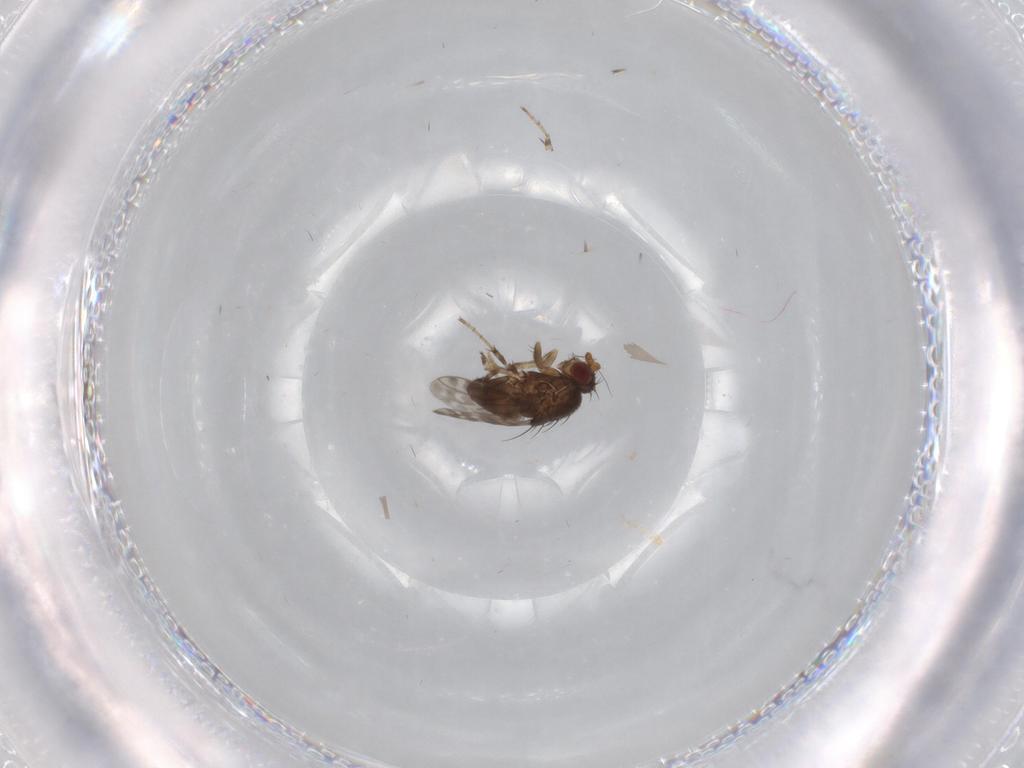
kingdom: Animalia
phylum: Arthropoda
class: Insecta
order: Diptera
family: Sphaeroceridae
